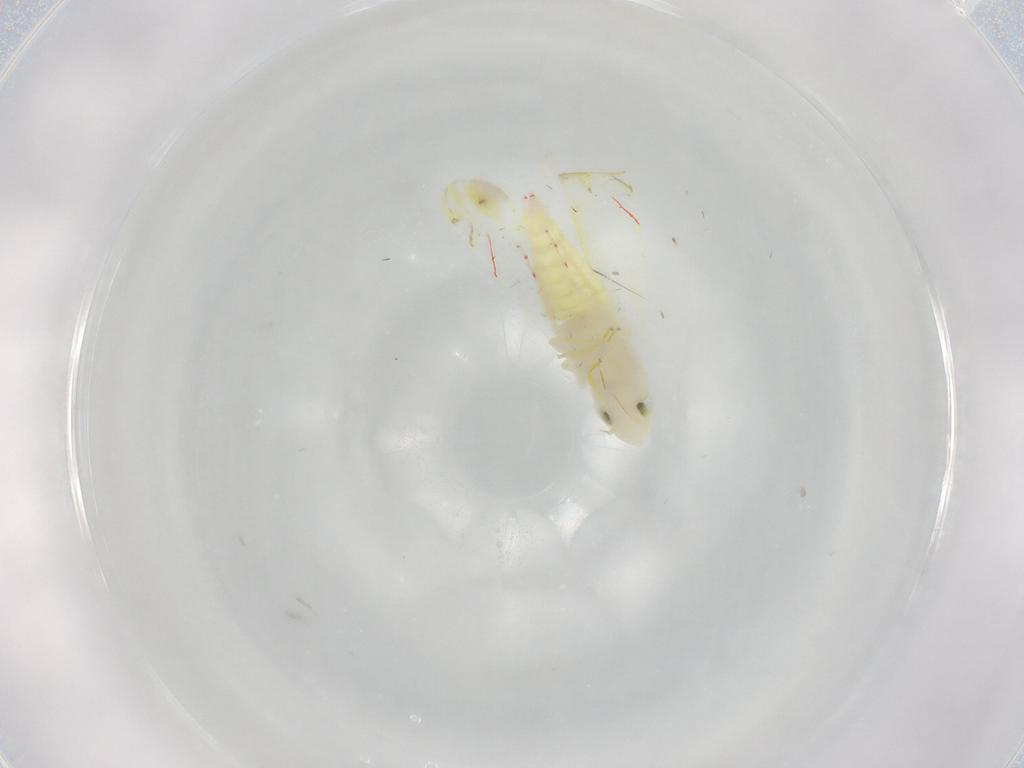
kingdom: Animalia
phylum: Arthropoda
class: Insecta
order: Hemiptera
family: Cicadellidae
